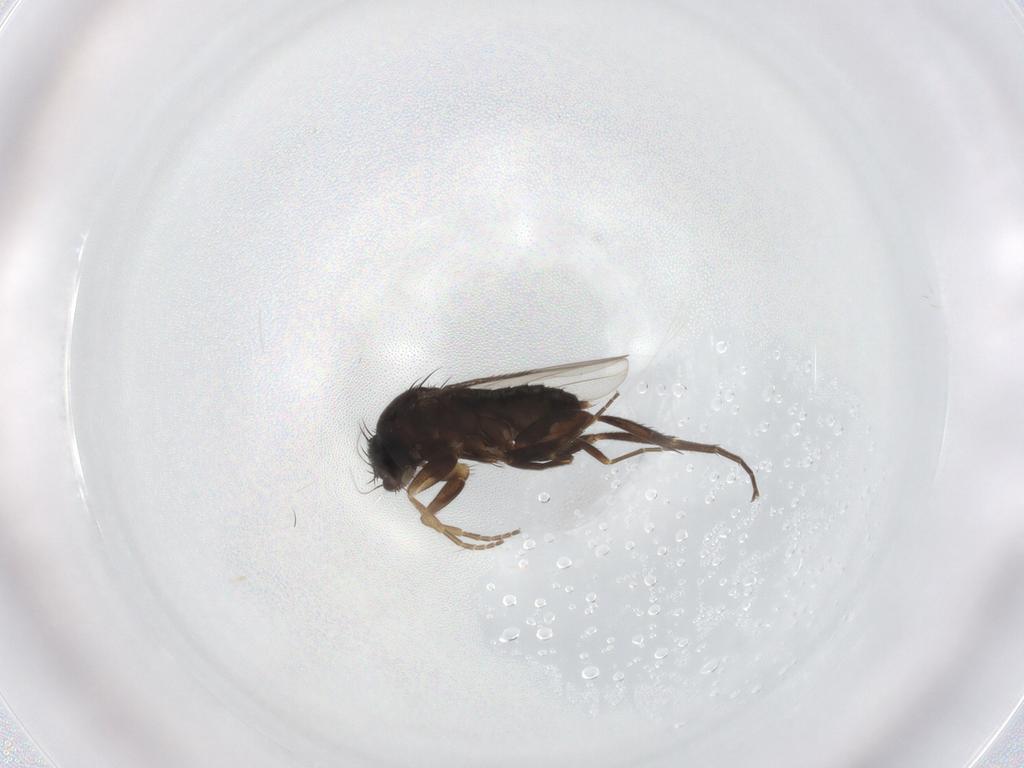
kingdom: Animalia
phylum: Arthropoda
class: Insecta
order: Diptera
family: Phoridae
